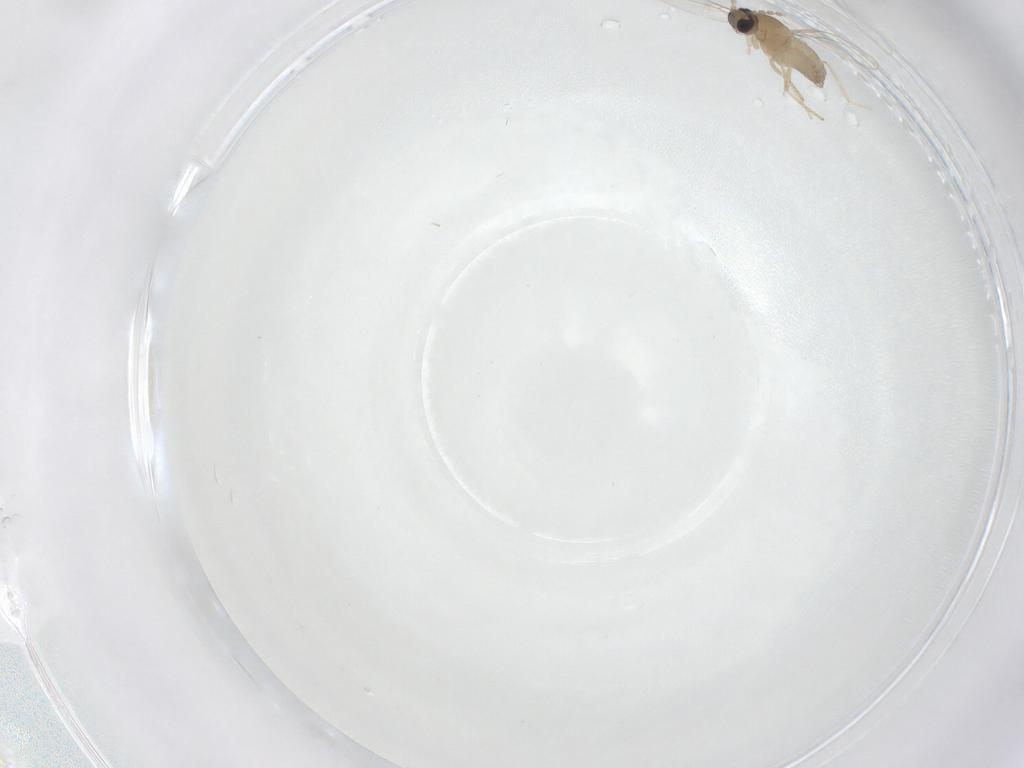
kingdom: Animalia
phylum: Arthropoda
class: Insecta
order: Diptera
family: Cecidomyiidae
